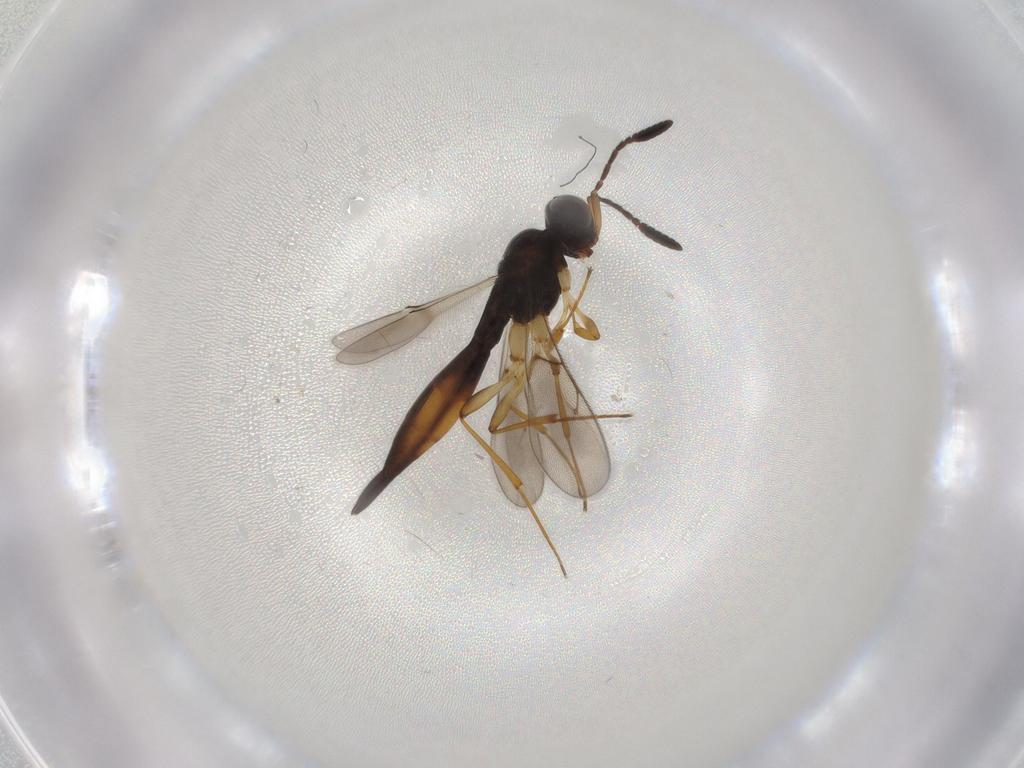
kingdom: Animalia
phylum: Arthropoda
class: Insecta
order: Hymenoptera
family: Scelionidae
